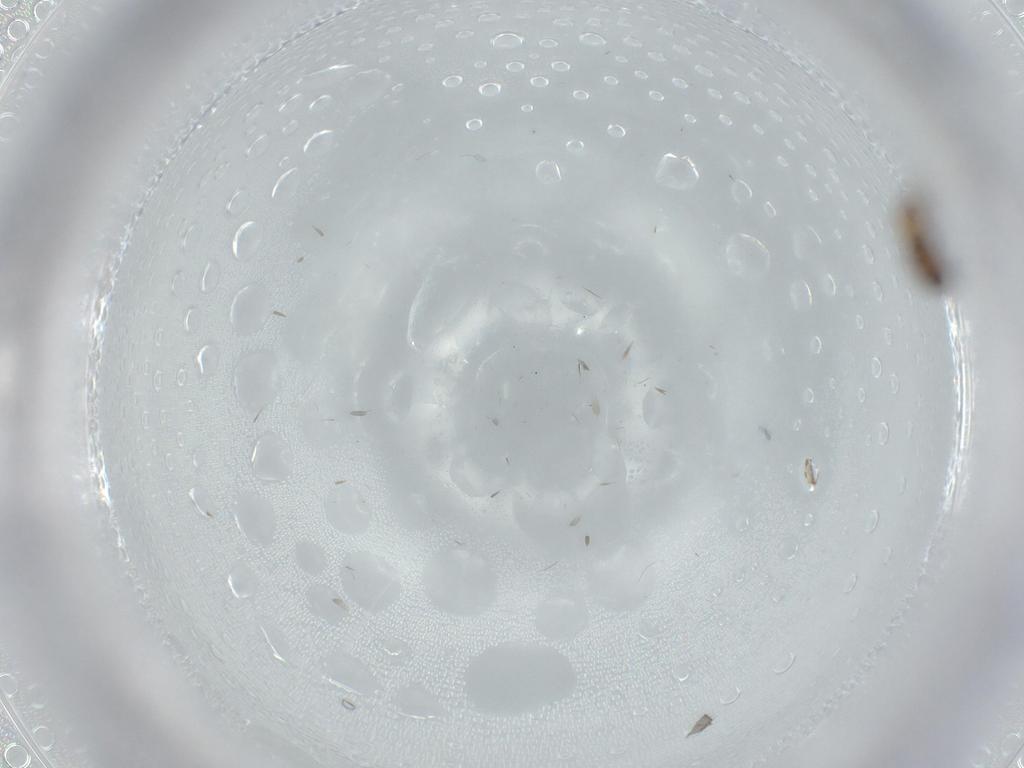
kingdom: Animalia
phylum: Arthropoda
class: Insecta
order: Blattodea
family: Ectobiidae
